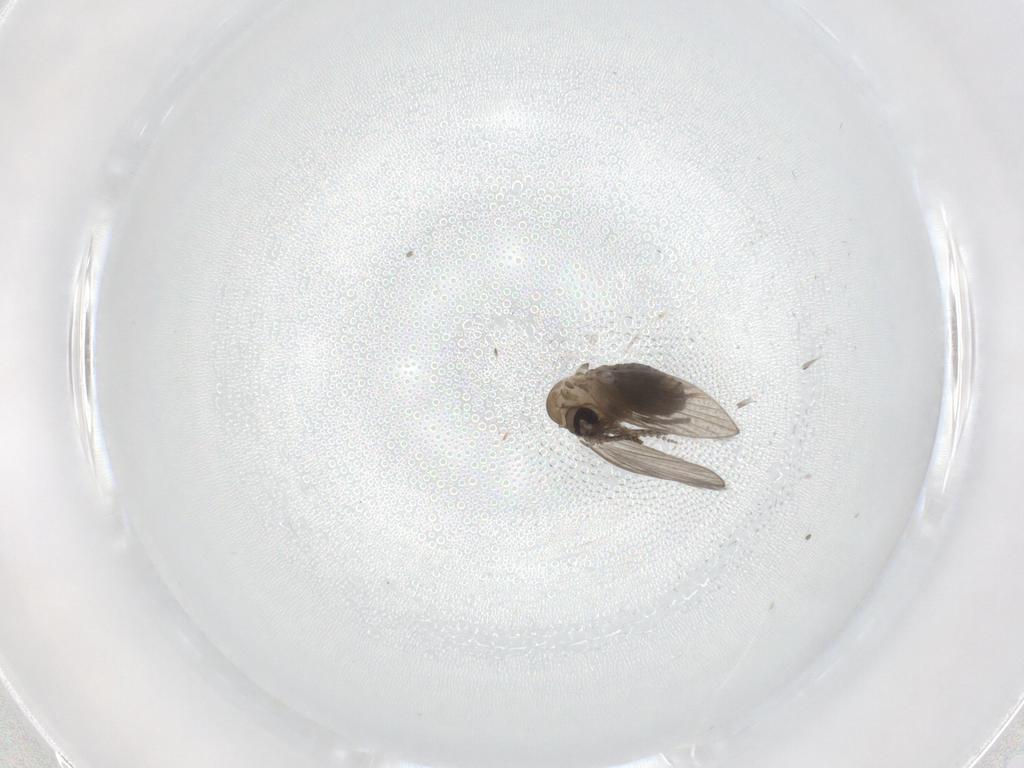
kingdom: Animalia
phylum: Arthropoda
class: Insecta
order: Diptera
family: Psychodidae
